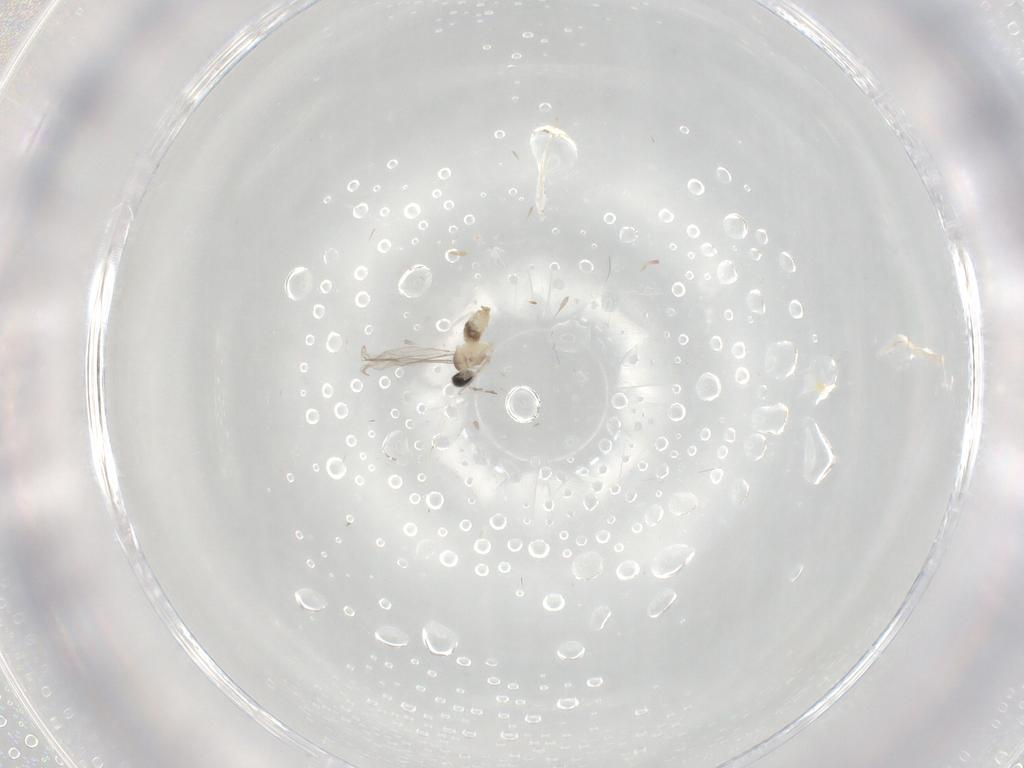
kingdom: Animalia
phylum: Arthropoda
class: Insecta
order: Diptera
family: Cecidomyiidae
